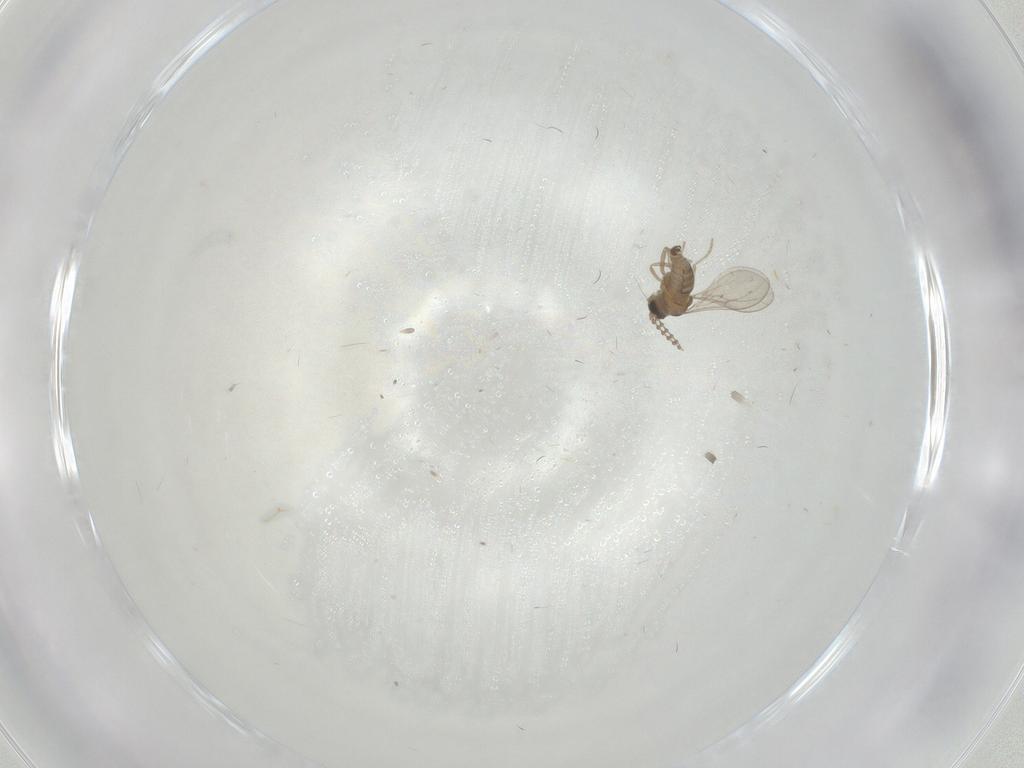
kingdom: Animalia
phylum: Arthropoda
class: Insecta
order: Diptera
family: Cecidomyiidae
